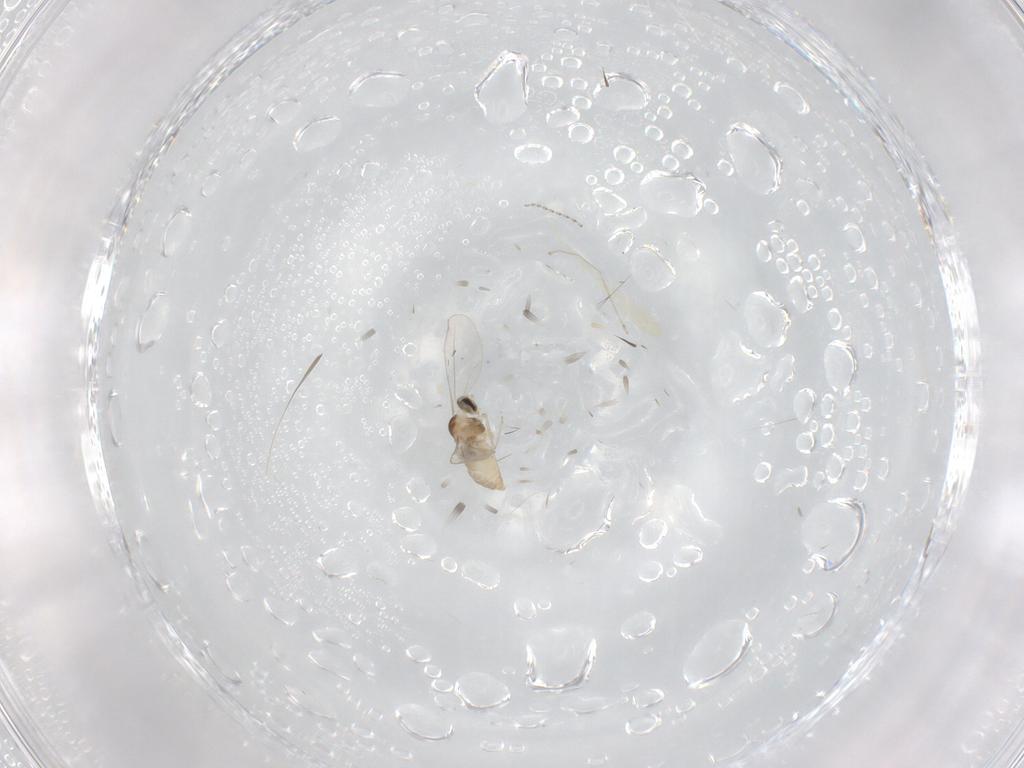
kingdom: Animalia
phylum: Arthropoda
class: Insecta
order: Diptera
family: Cecidomyiidae
